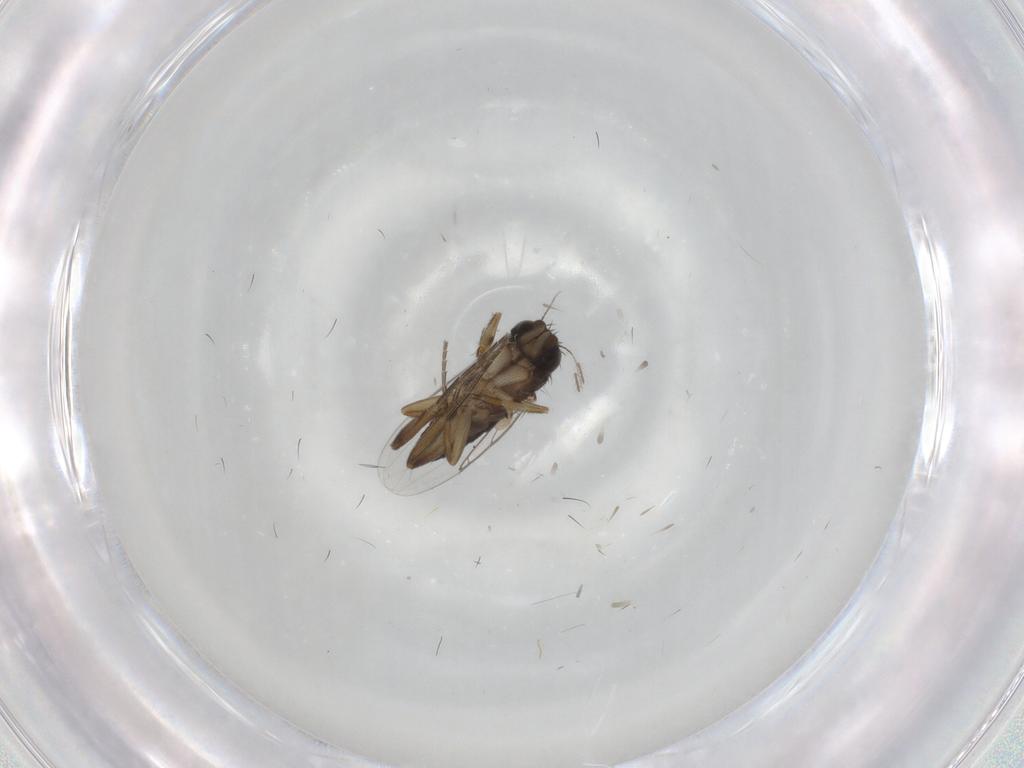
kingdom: Animalia
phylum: Arthropoda
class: Insecta
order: Diptera
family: Phoridae
